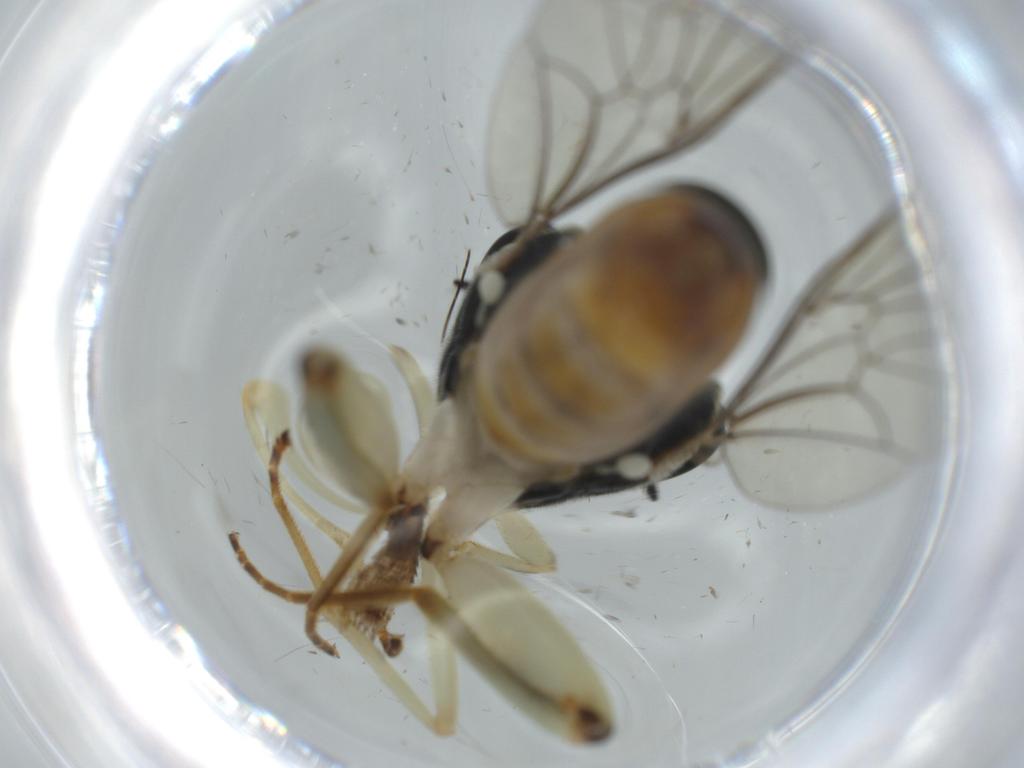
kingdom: Animalia
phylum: Arthropoda
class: Insecta
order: Diptera
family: Xylomyidae
